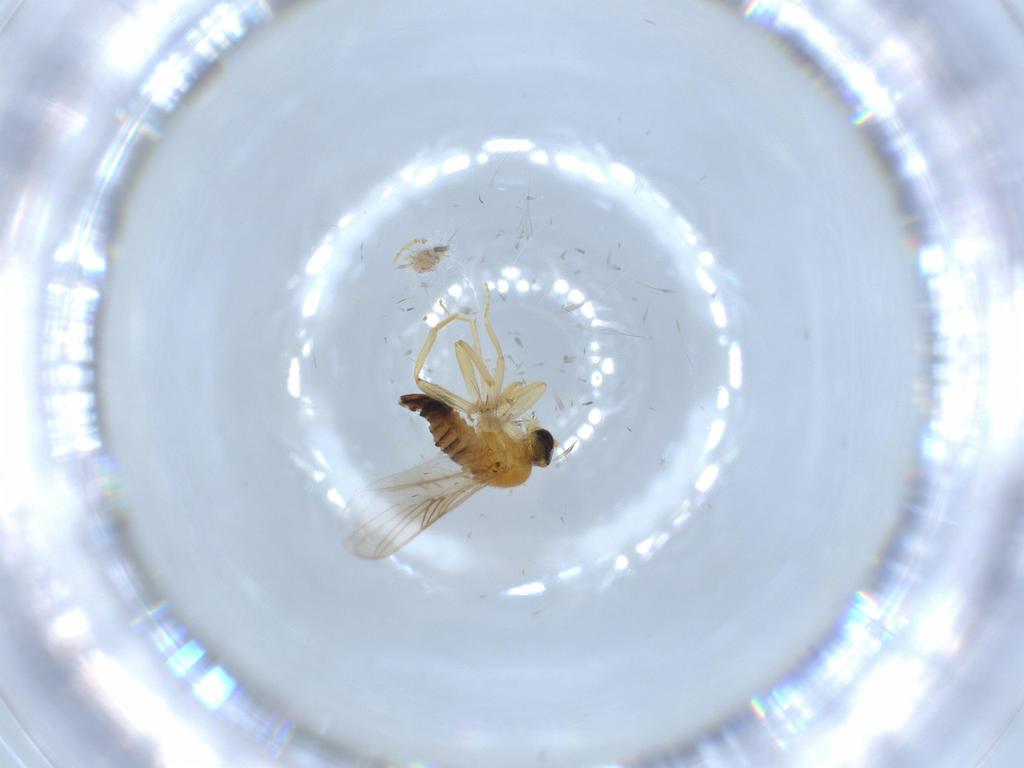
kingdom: Animalia
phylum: Arthropoda
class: Insecta
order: Diptera
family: Hybotidae
